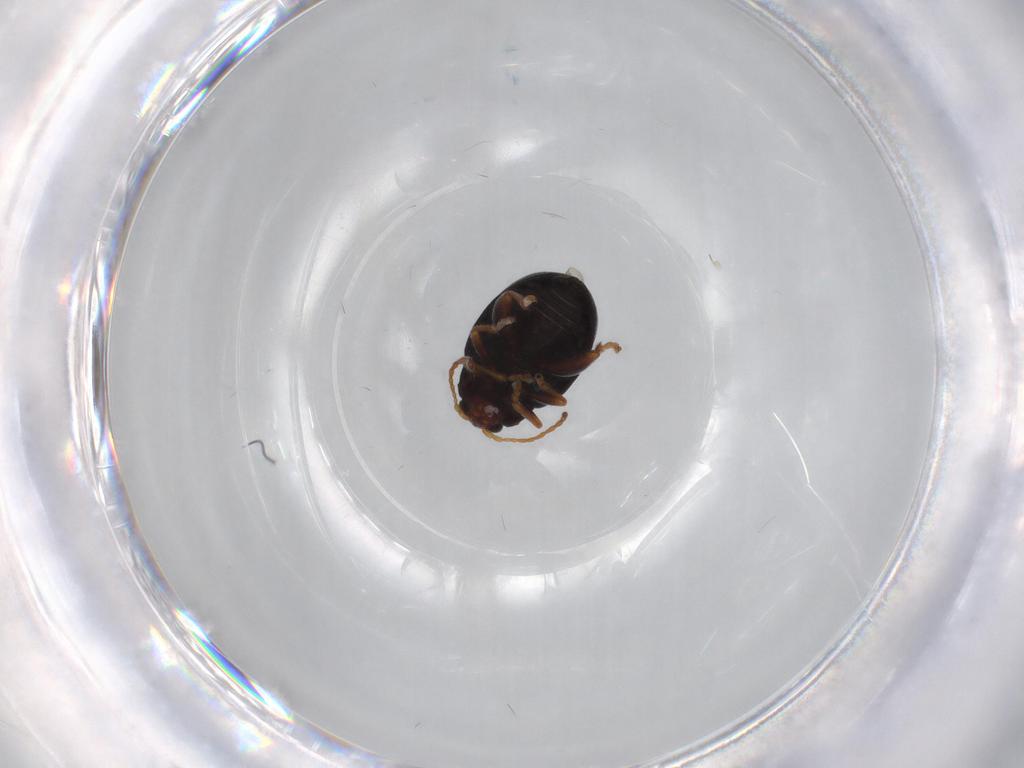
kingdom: Animalia
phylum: Arthropoda
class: Insecta
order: Coleoptera
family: Chrysomelidae
